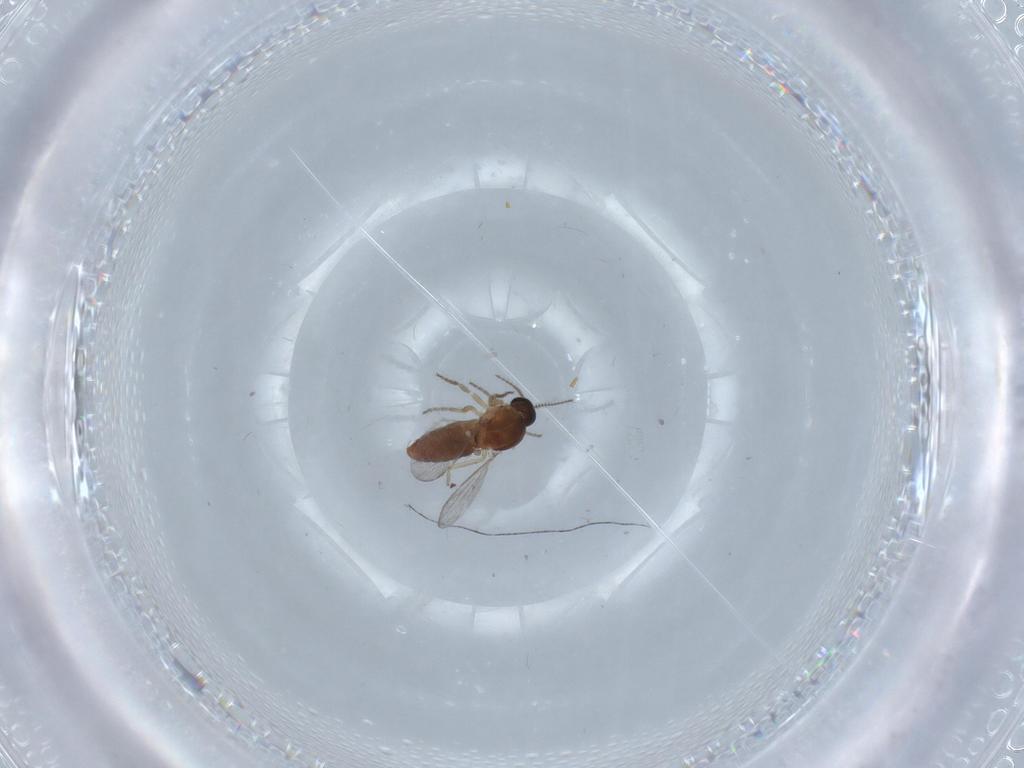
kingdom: Animalia
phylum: Arthropoda
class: Insecta
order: Diptera
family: Ceratopogonidae
